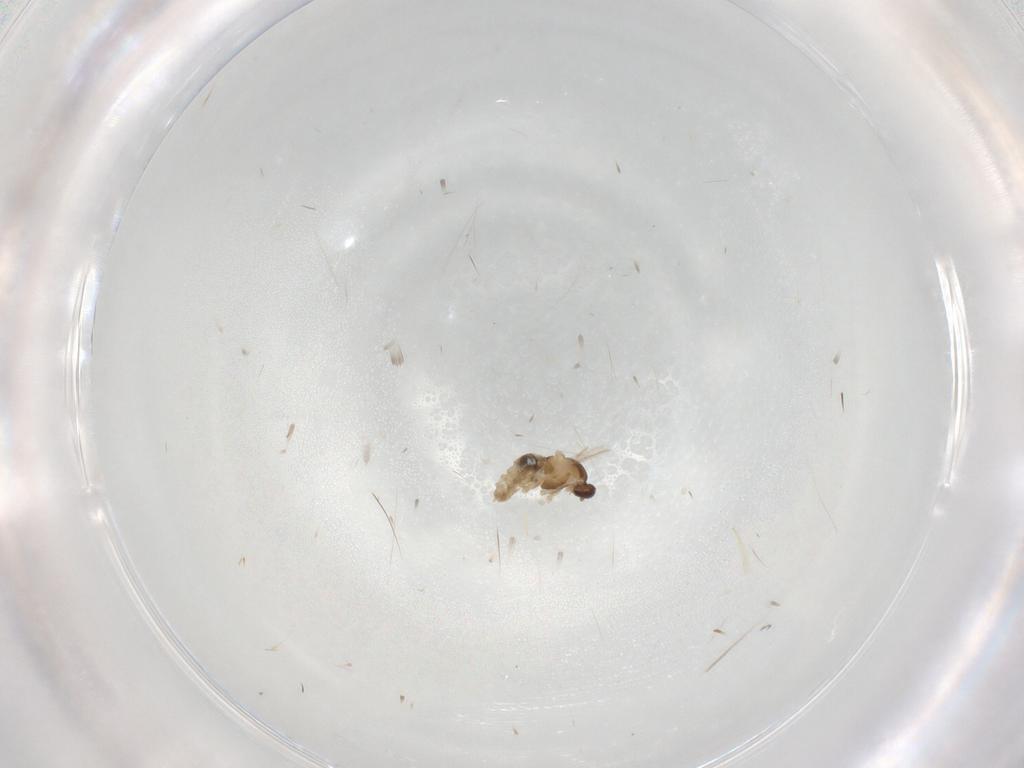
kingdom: Animalia
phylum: Arthropoda
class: Insecta
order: Diptera
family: Cecidomyiidae
